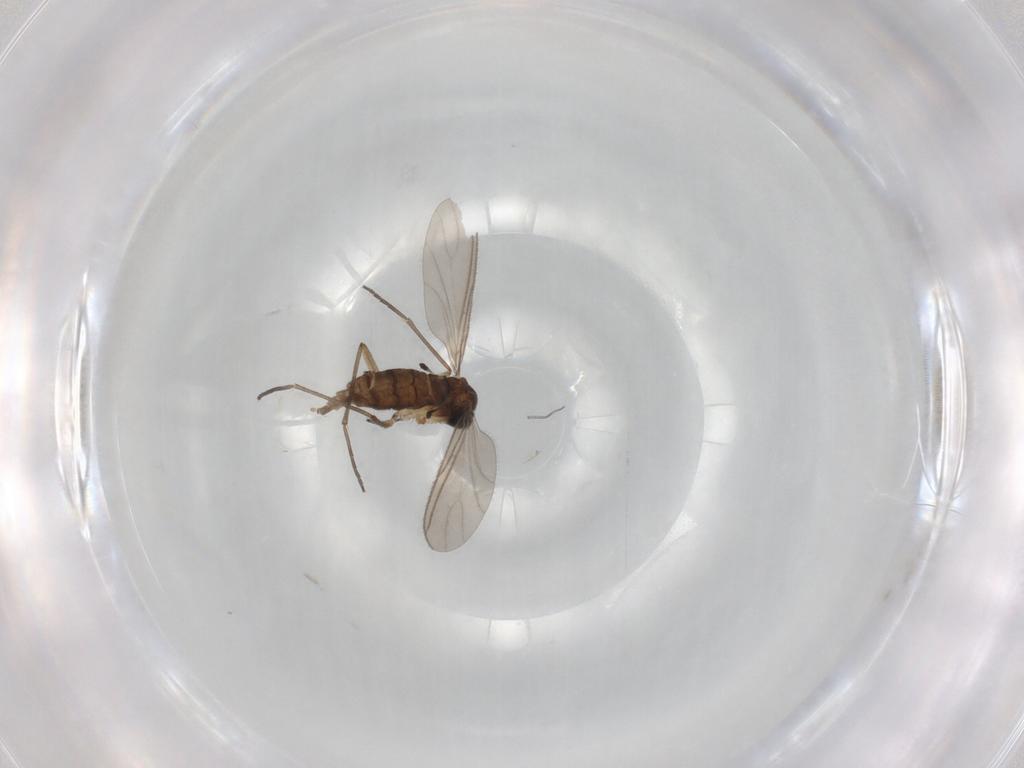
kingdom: Animalia
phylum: Arthropoda
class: Insecta
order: Diptera
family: Sciaridae
